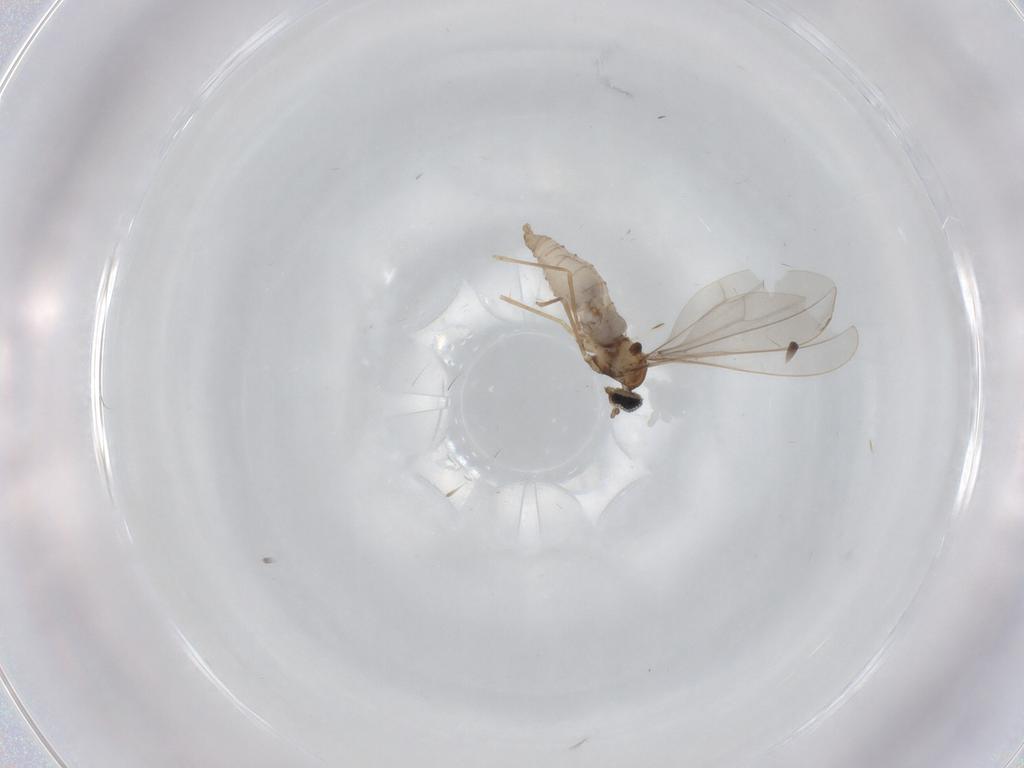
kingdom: Animalia
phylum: Arthropoda
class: Insecta
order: Diptera
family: Cecidomyiidae
